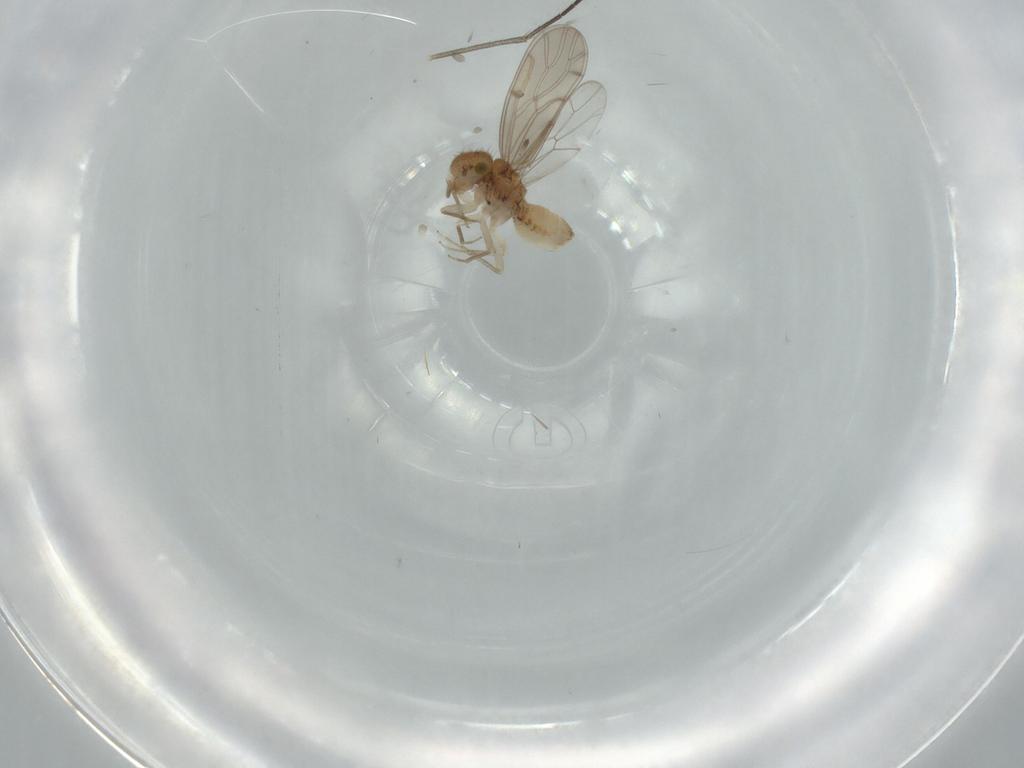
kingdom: Animalia
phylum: Arthropoda
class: Insecta
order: Psocodea
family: Ectopsocidae
